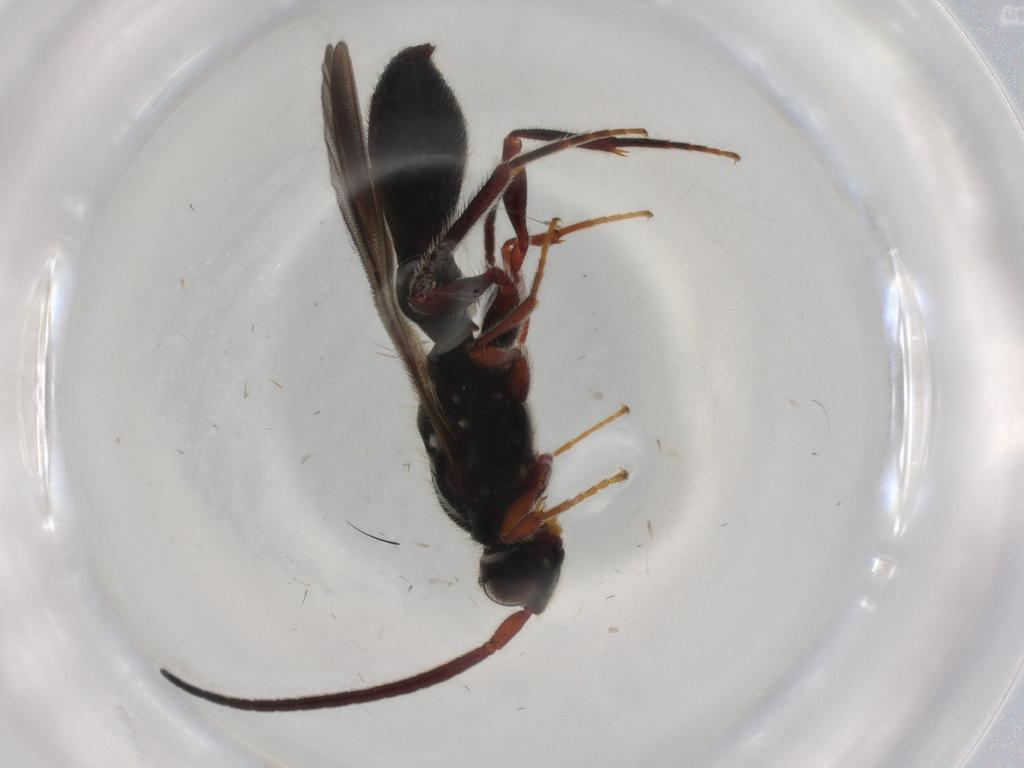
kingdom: Animalia
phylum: Arthropoda
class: Insecta
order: Hymenoptera
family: Diapriidae
